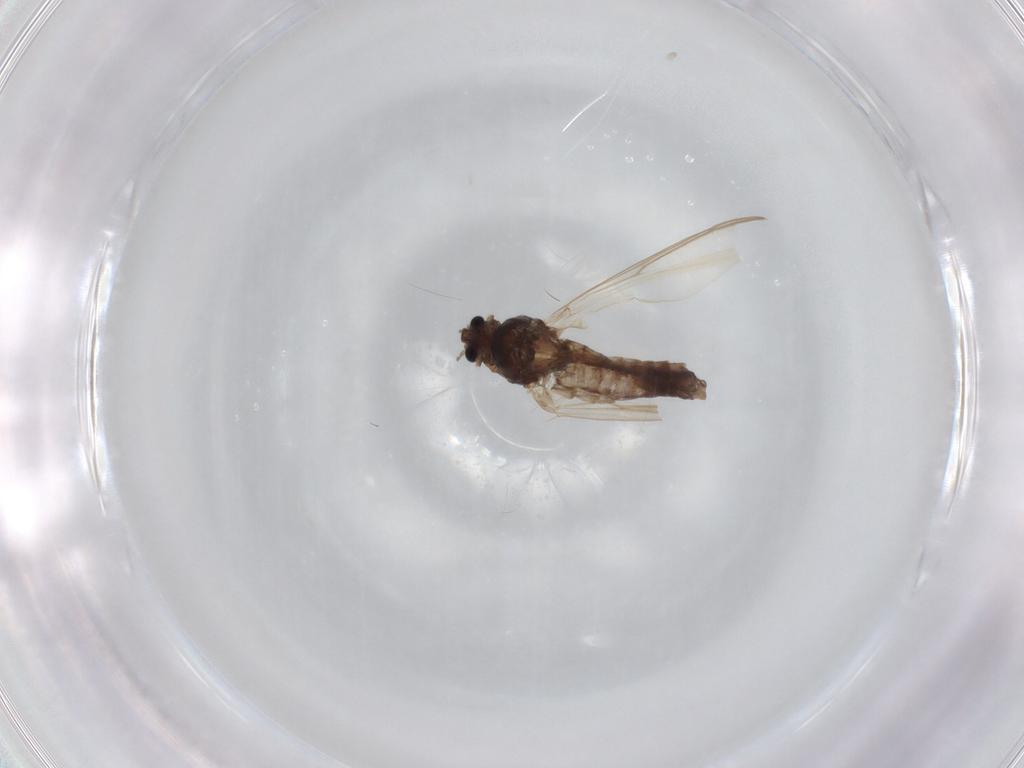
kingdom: Animalia
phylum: Arthropoda
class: Insecta
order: Diptera
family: Chironomidae
